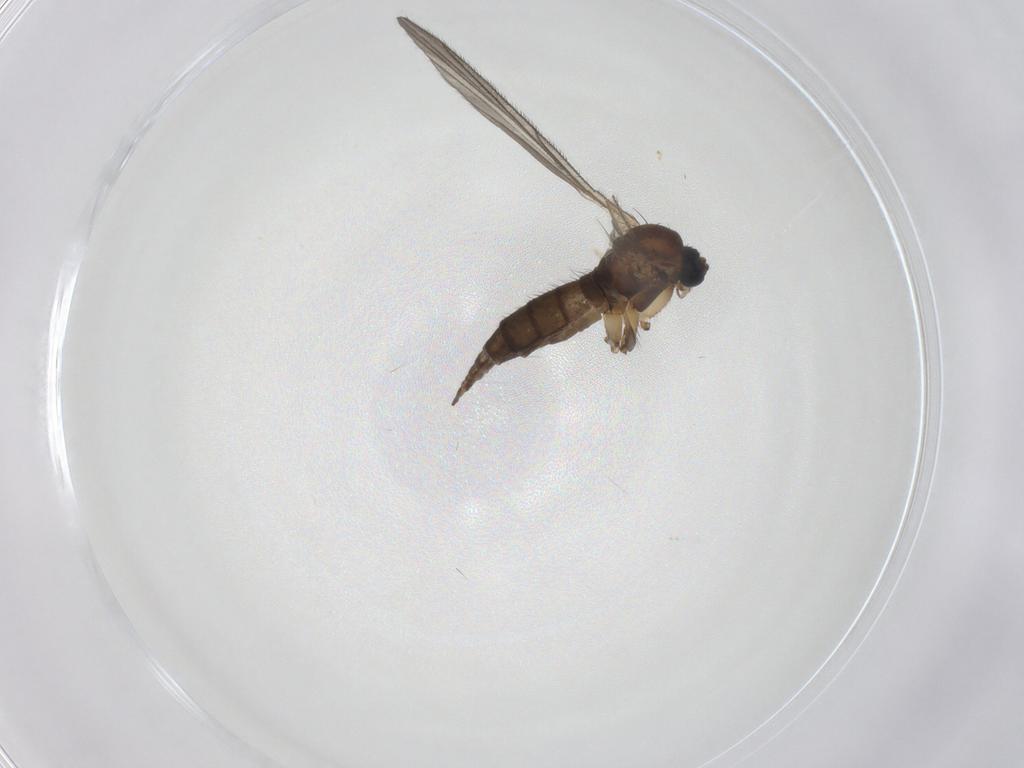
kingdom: Animalia
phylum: Arthropoda
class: Insecta
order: Diptera
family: Sciaridae
